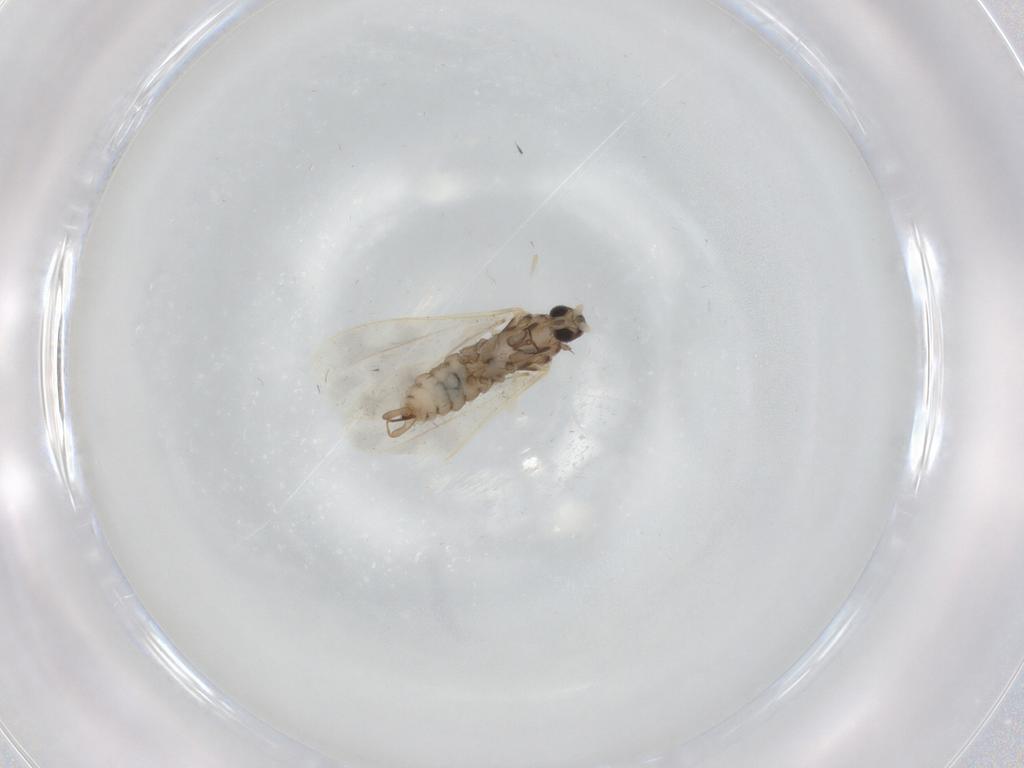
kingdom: Animalia
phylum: Arthropoda
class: Insecta
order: Diptera
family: Cecidomyiidae
